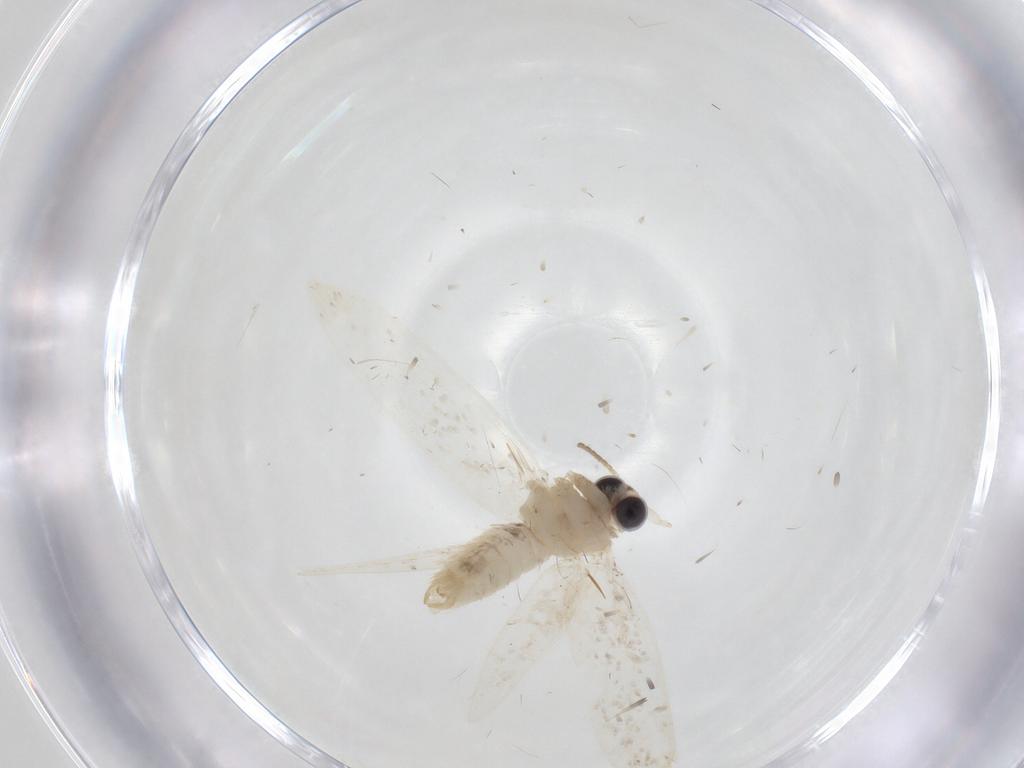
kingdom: Animalia
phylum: Arthropoda
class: Insecta
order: Lepidoptera
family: Psychidae
